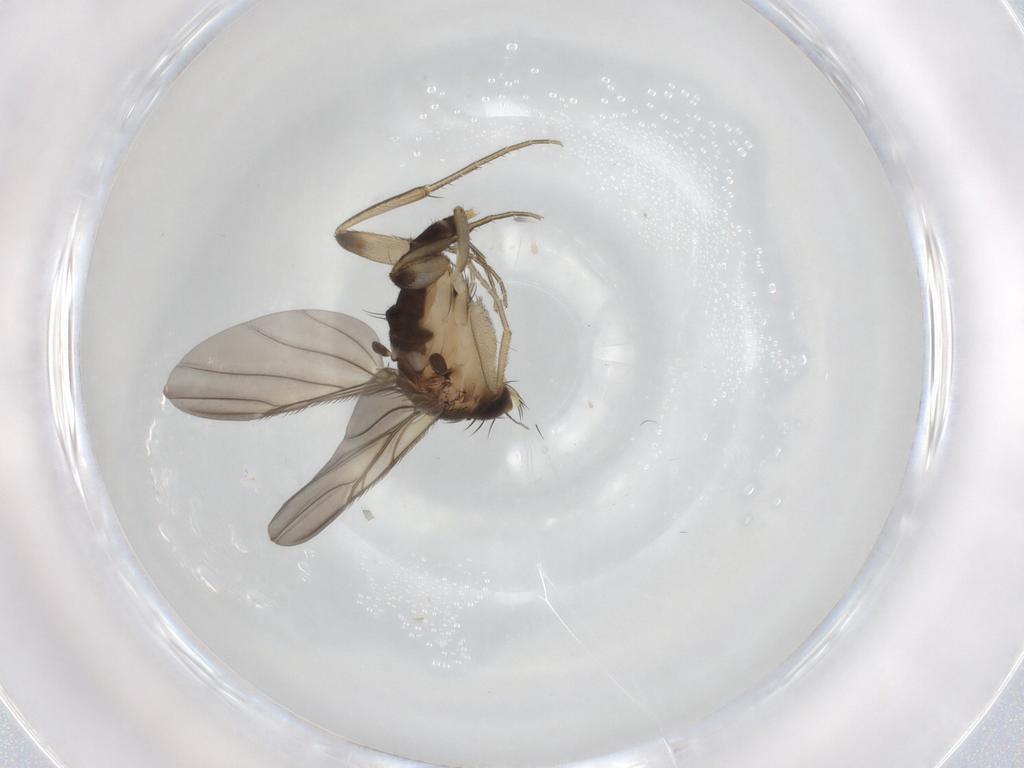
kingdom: Animalia
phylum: Arthropoda
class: Insecta
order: Diptera
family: Phoridae
